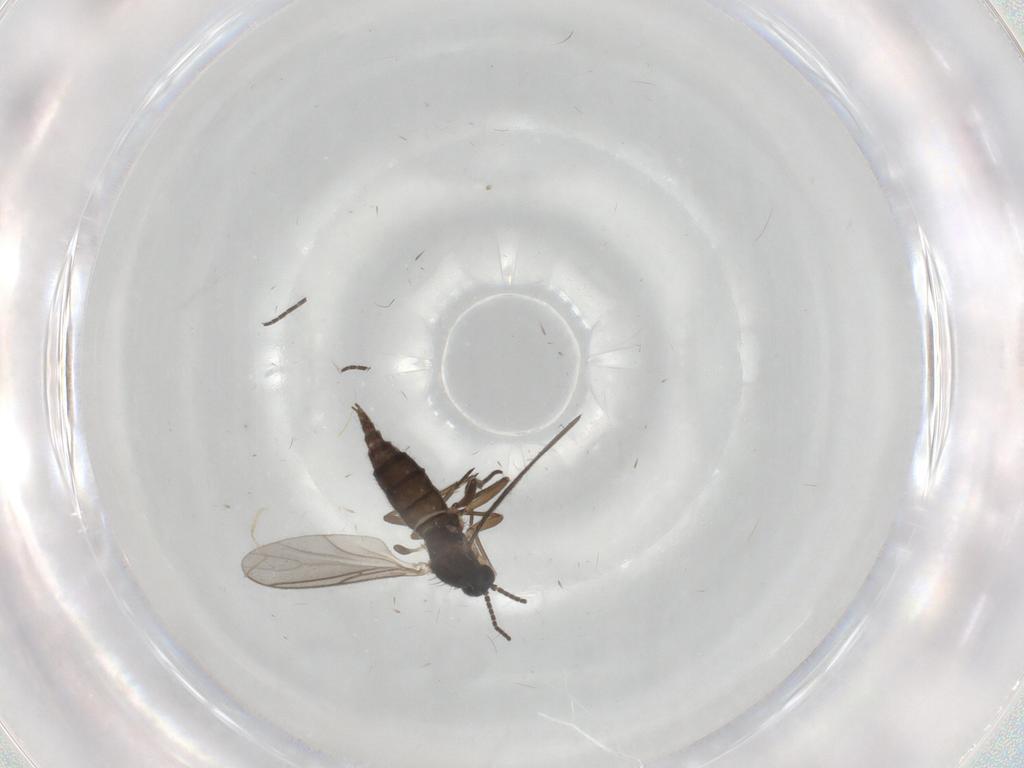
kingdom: Animalia
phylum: Arthropoda
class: Insecta
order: Diptera
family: Sciaridae
